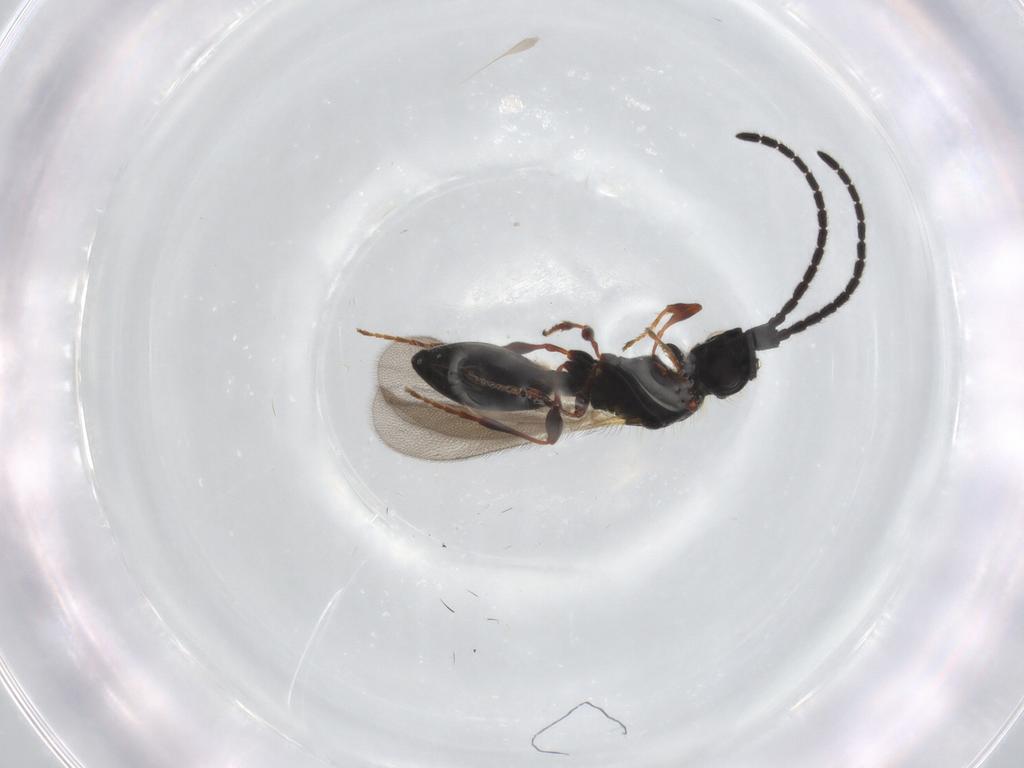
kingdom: Animalia
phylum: Arthropoda
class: Insecta
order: Hymenoptera
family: Diapriidae
